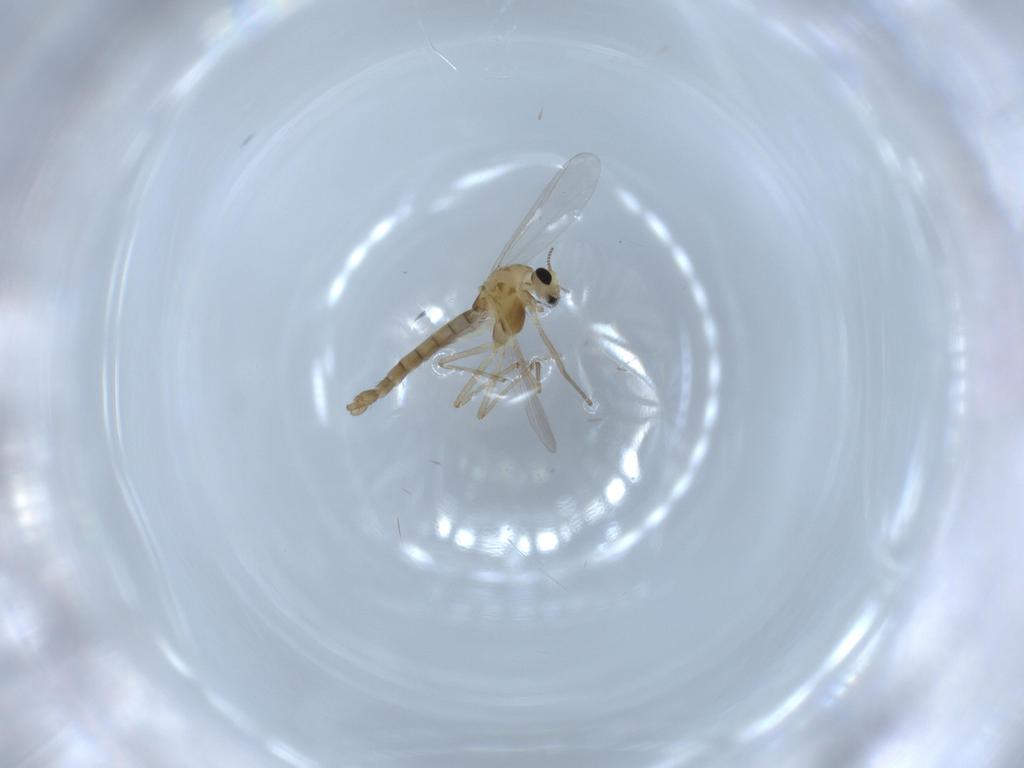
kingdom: Animalia
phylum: Arthropoda
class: Insecta
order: Diptera
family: Chironomidae
